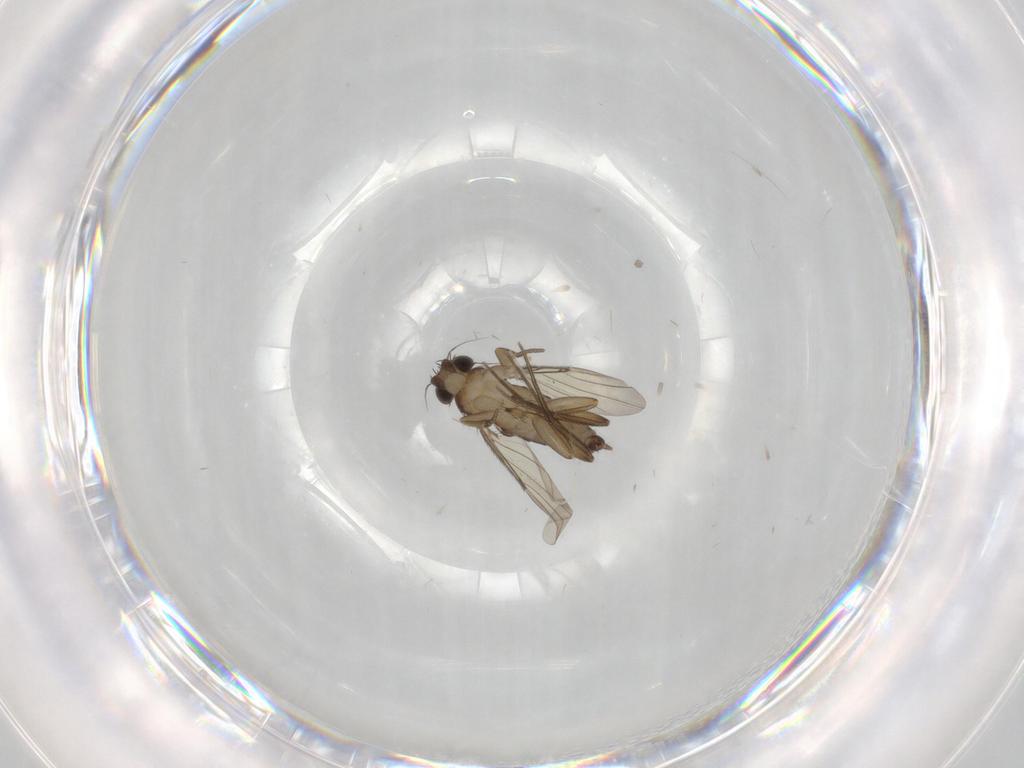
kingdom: Animalia
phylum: Arthropoda
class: Insecta
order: Diptera
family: Phoridae
